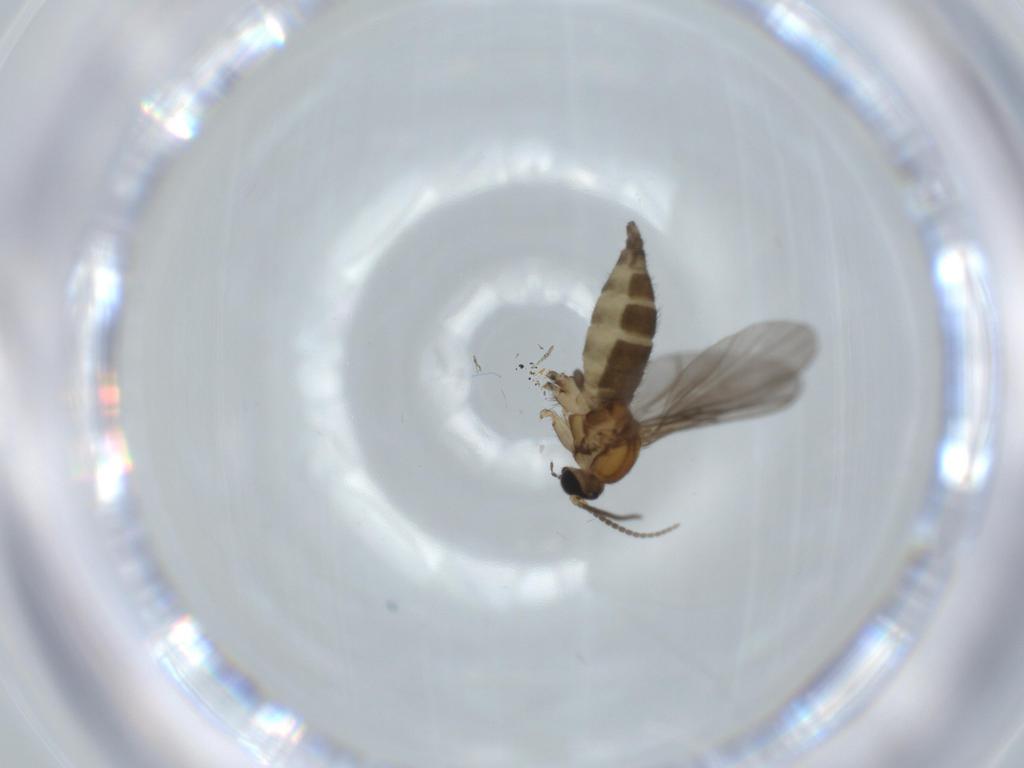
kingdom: Animalia
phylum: Arthropoda
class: Insecta
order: Diptera
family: Sciaridae
